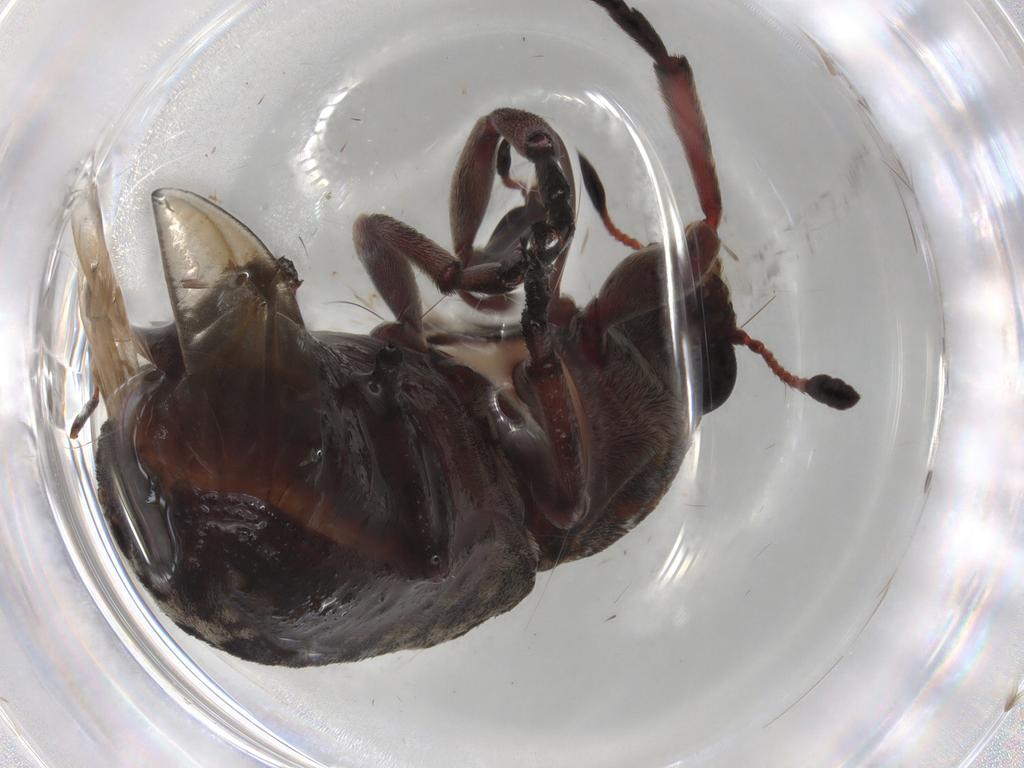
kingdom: Animalia
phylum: Arthropoda
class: Insecta
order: Coleoptera
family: Anthribidae
